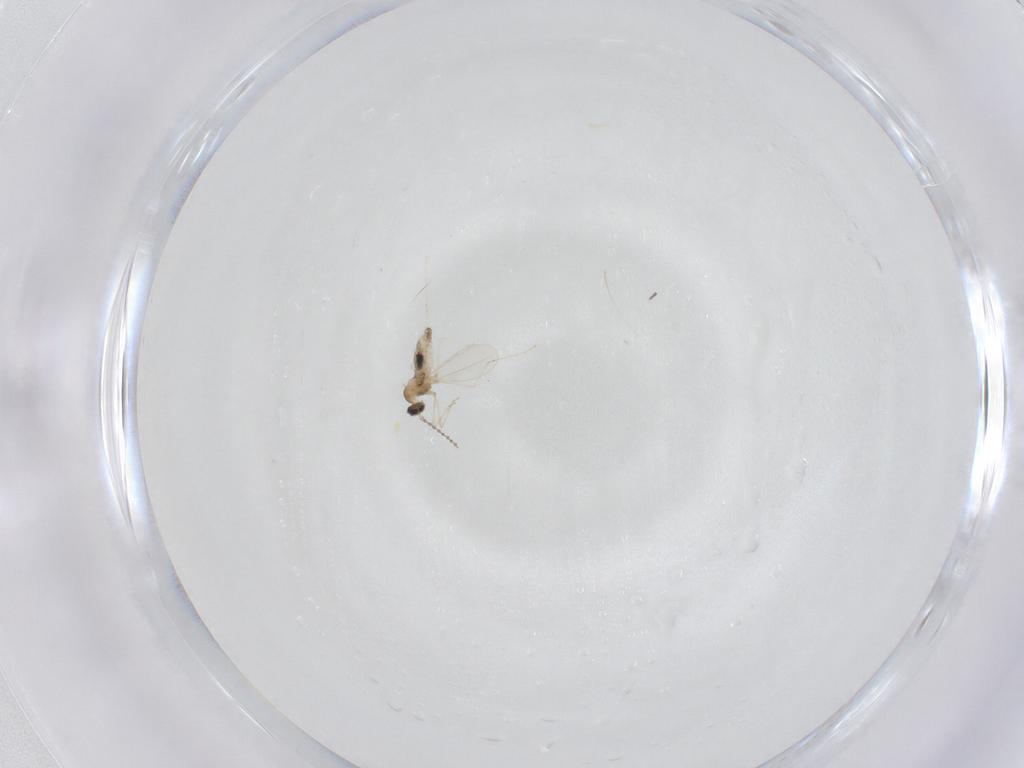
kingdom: Animalia
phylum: Arthropoda
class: Insecta
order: Diptera
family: Cecidomyiidae
